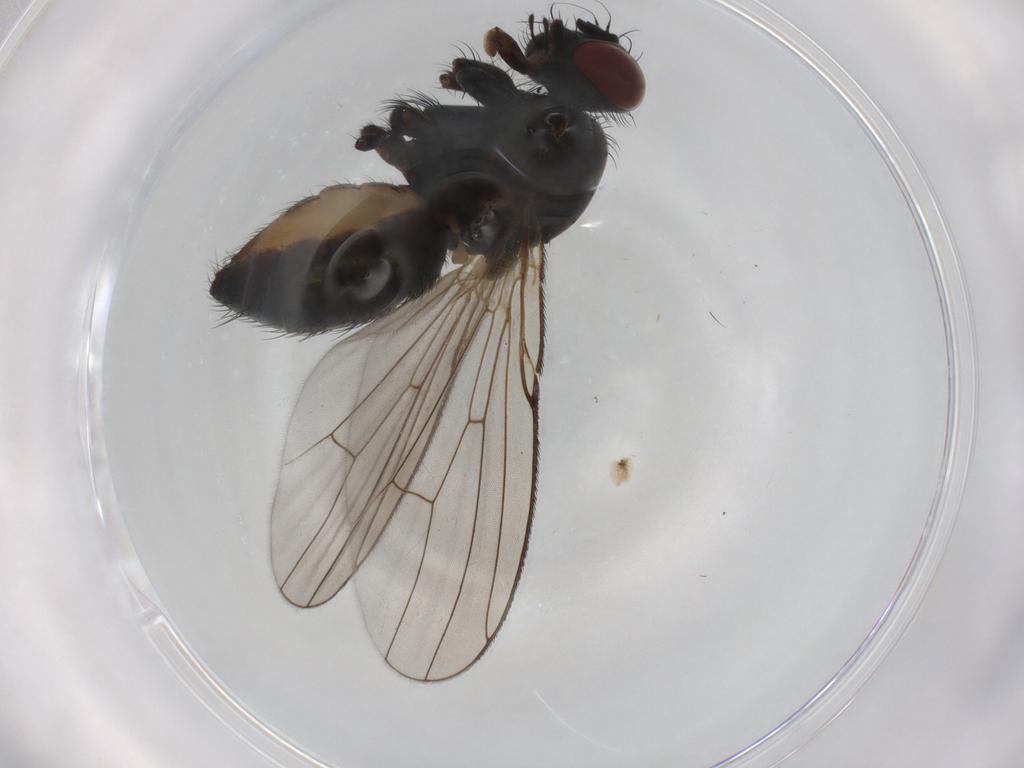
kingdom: Animalia
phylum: Arthropoda
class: Insecta
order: Diptera
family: Muscidae
